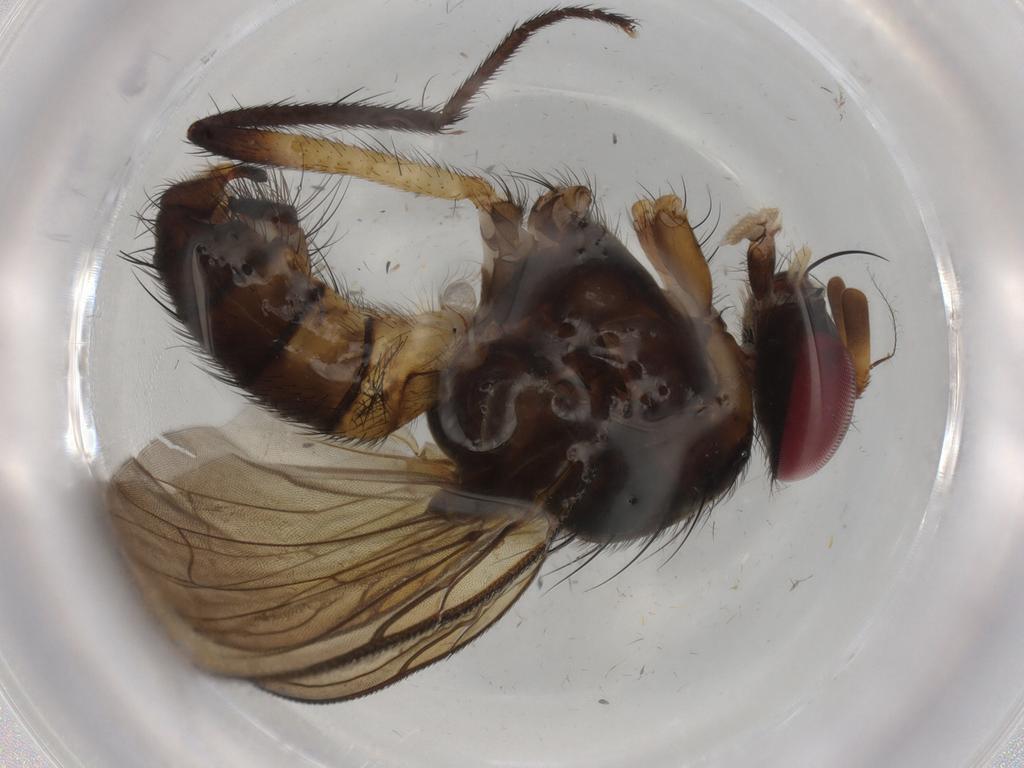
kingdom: Animalia
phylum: Arthropoda
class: Insecta
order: Diptera
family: Anthomyiidae
